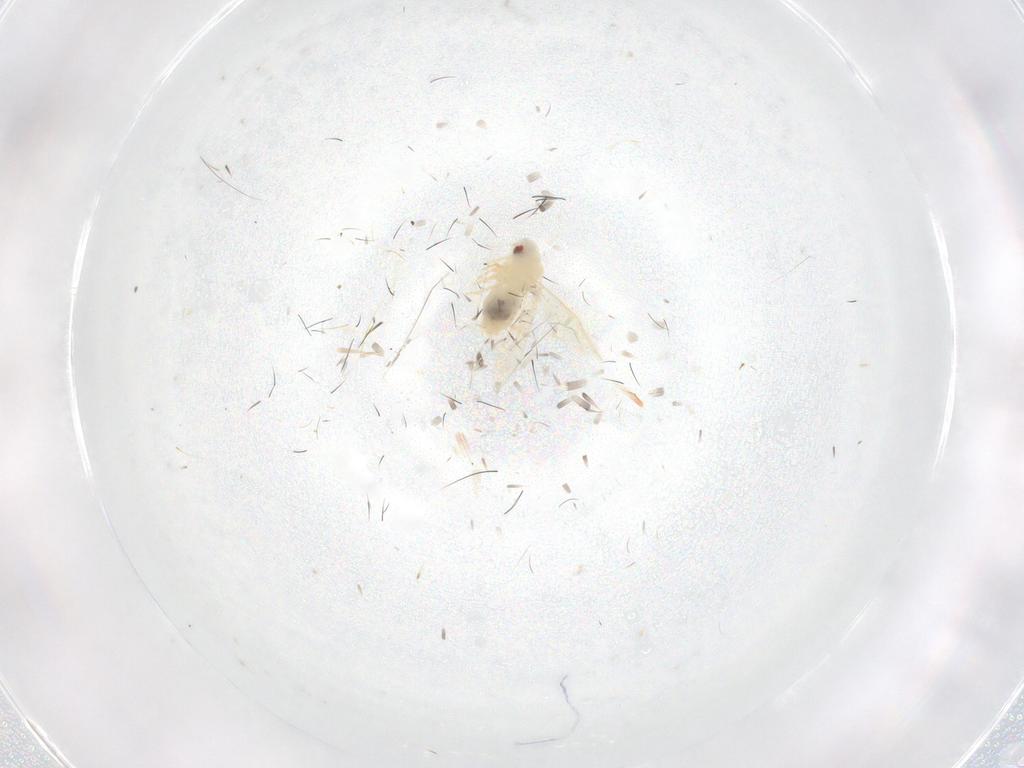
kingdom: Animalia
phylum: Arthropoda
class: Insecta
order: Hemiptera
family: Aleyrodidae
